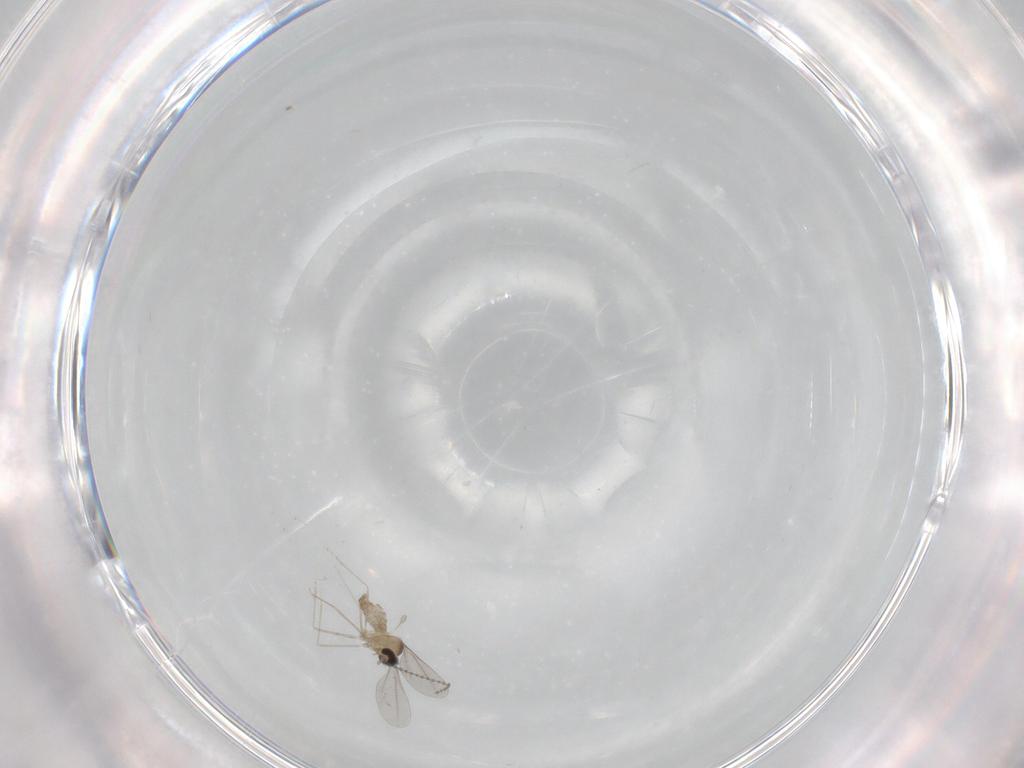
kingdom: Animalia
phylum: Arthropoda
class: Insecta
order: Diptera
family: Cecidomyiidae
